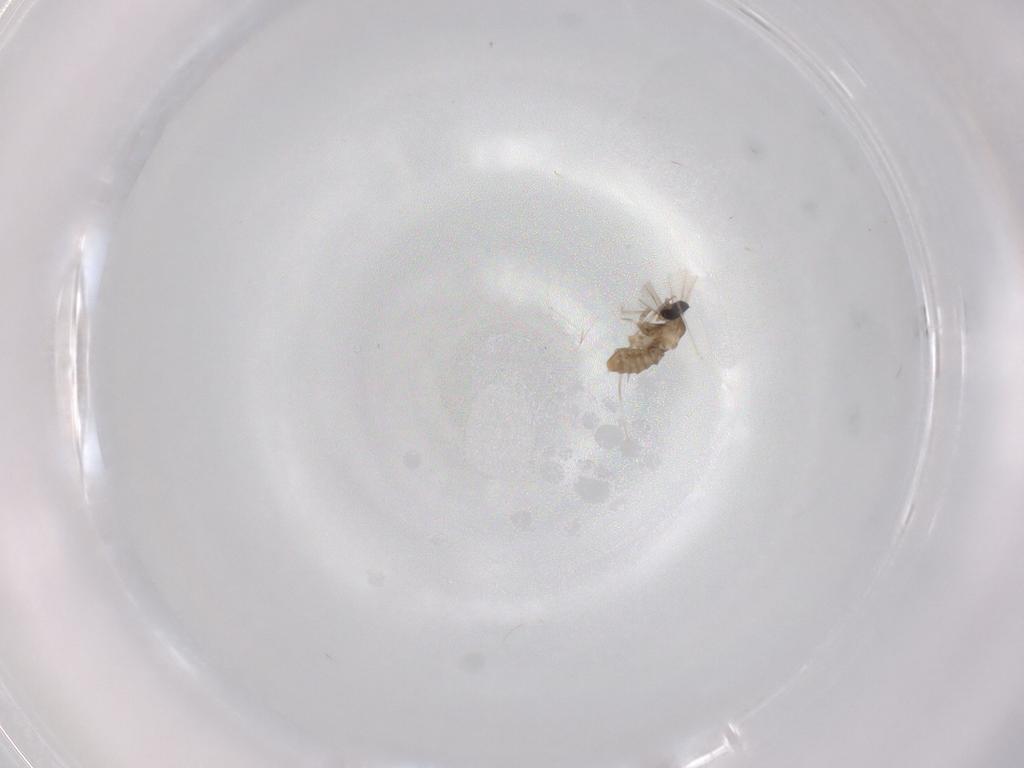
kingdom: Animalia
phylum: Arthropoda
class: Insecta
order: Diptera
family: Cecidomyiidae
